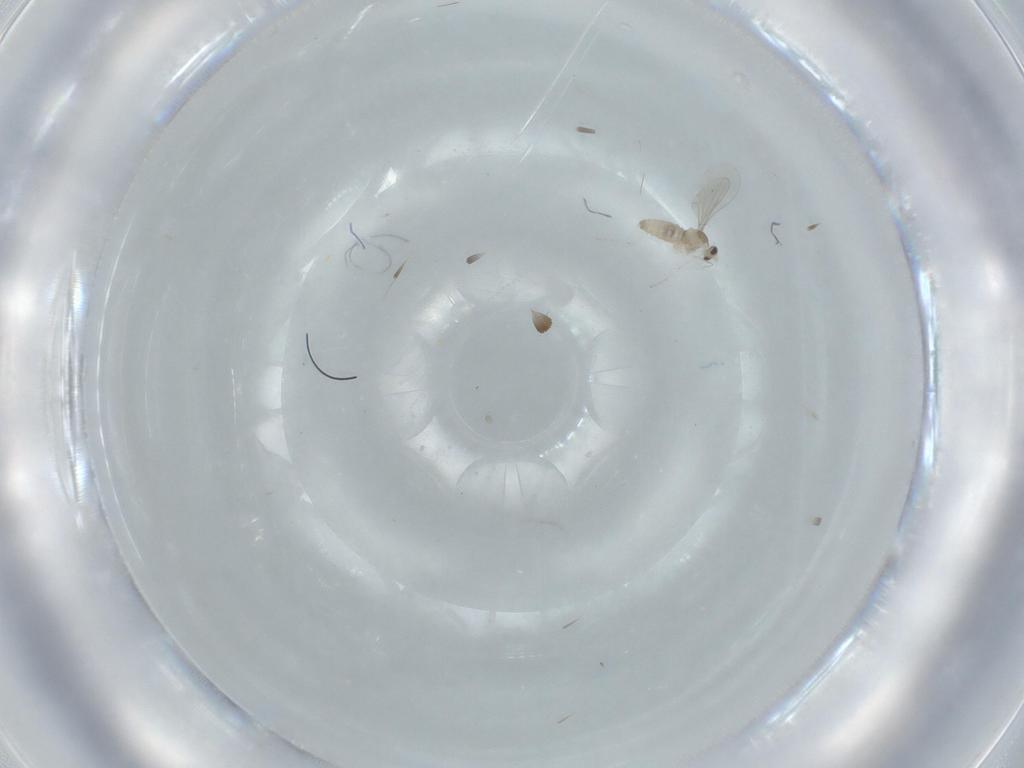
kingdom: Animalia
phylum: Arthropoda
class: Insecta
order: Diptera
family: Cecidomyiidae
